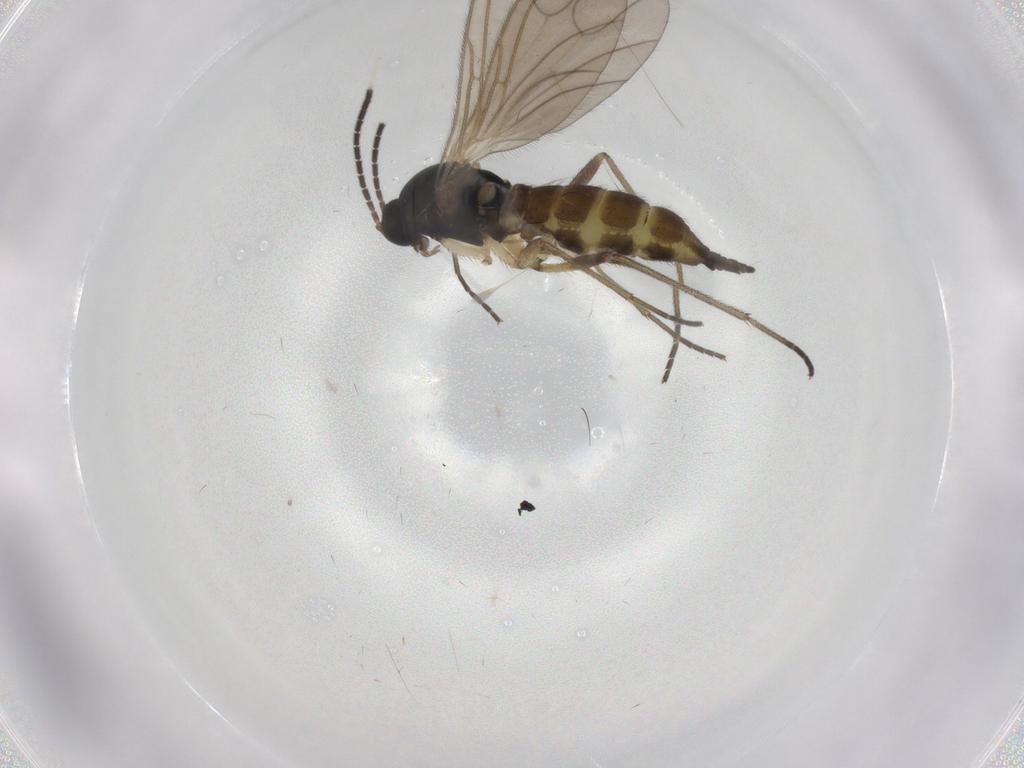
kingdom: Animalia
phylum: Arthropoda
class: Insecta
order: Diptera
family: Sciaridae
